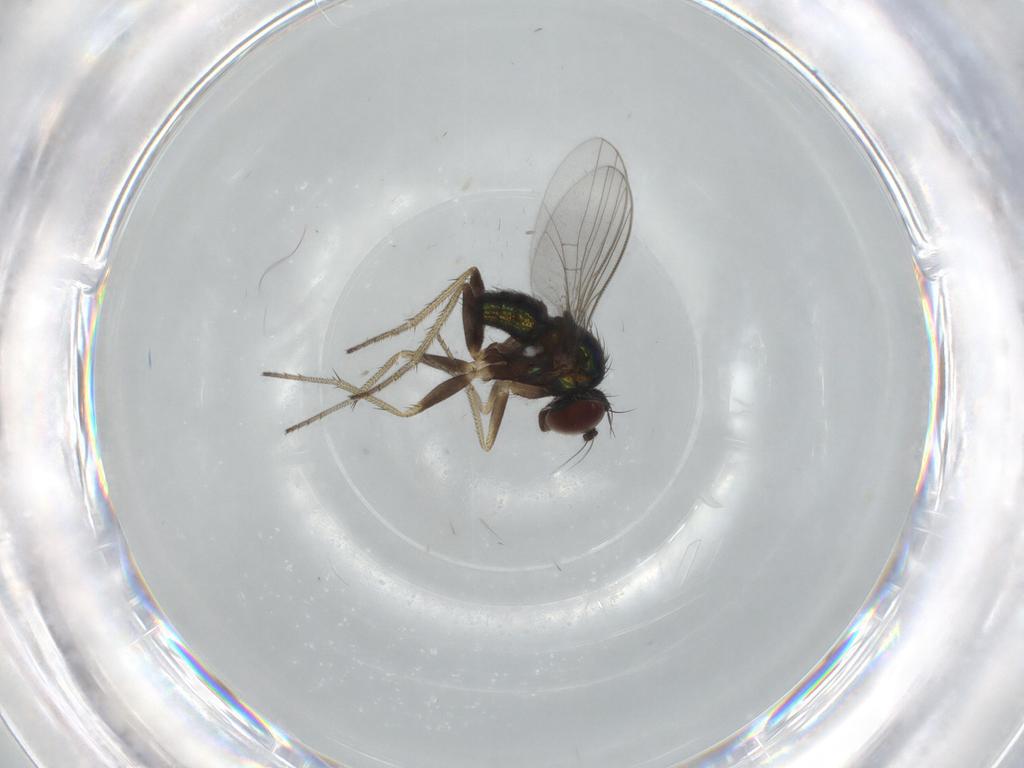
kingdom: Animalia
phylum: Arthropoda
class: Insecta
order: Diptera
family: Dolichopodidae
